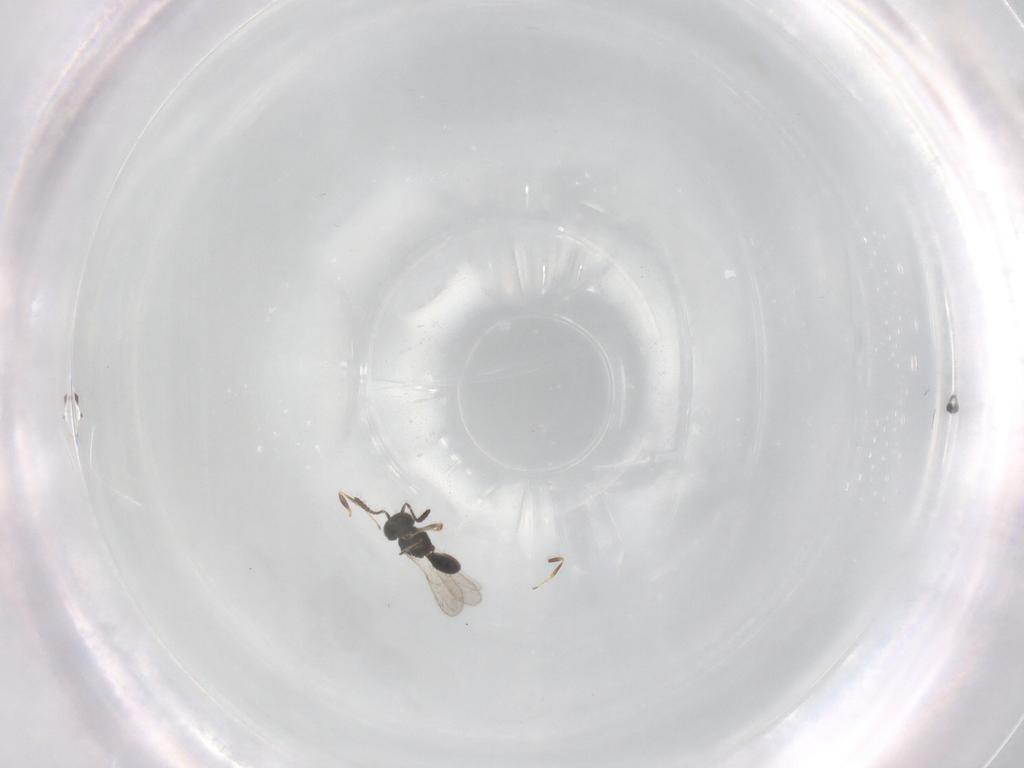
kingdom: Animalia
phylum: Arthropoda
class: Insecta
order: Hymenoptera
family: Scelionidae
